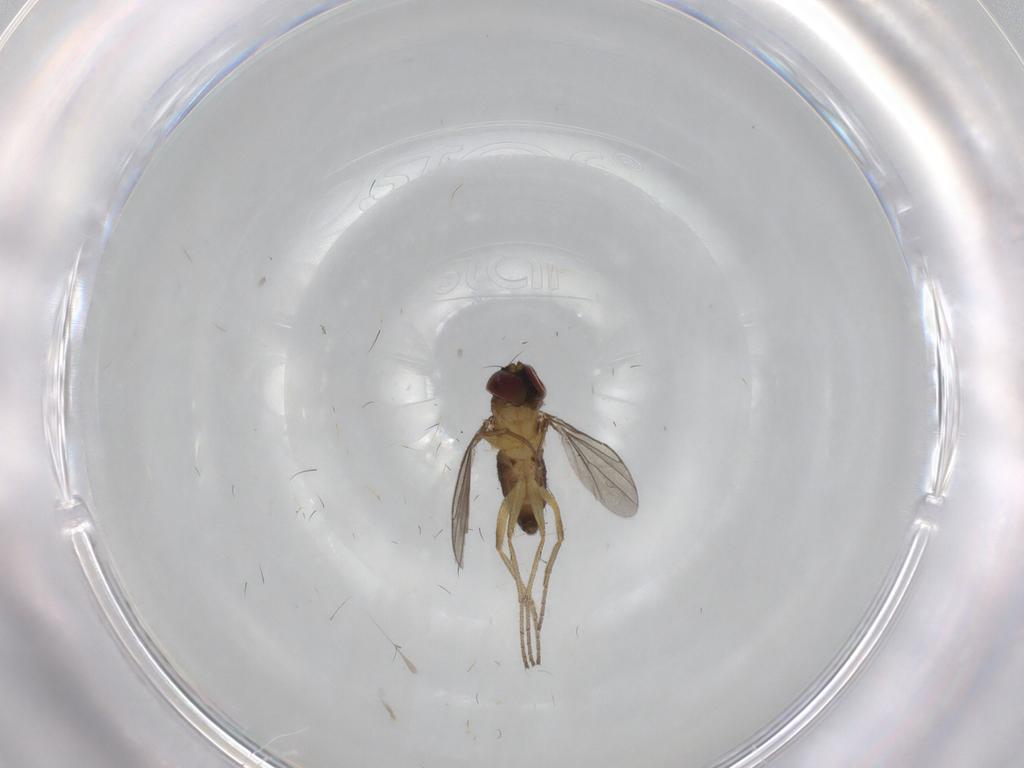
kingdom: Animalia
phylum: Arthropoda
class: Insecta
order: Diptera
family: Dolichopodidae
